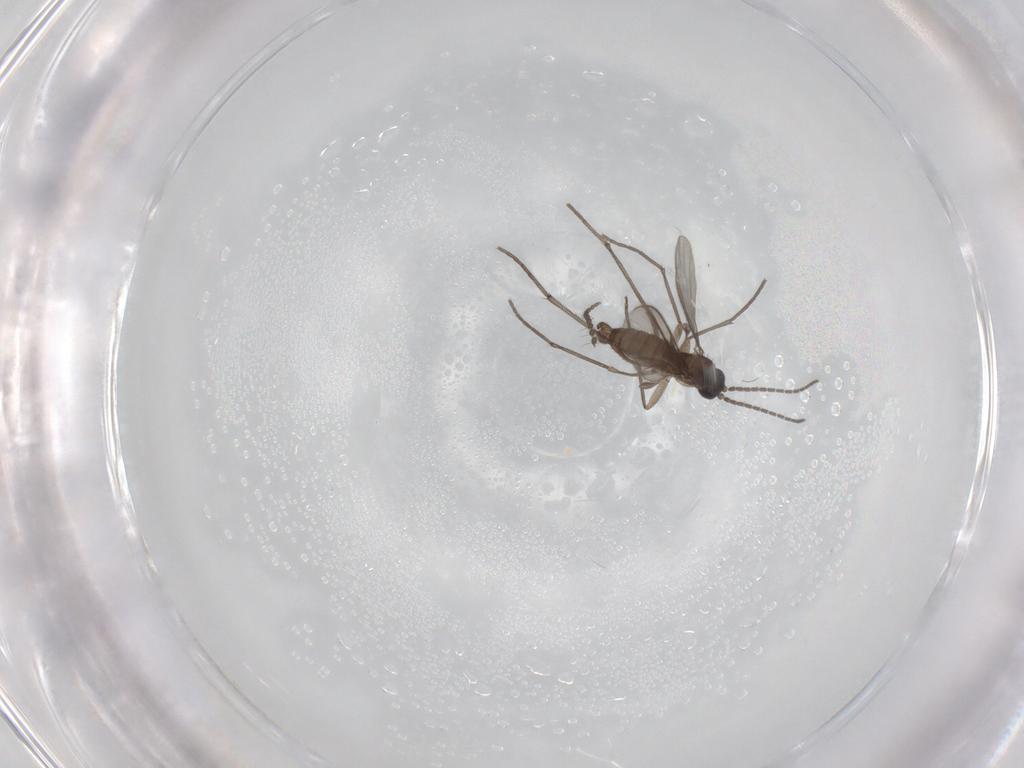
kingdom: Animalia
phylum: Arthropoda
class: Insecta
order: Diptera
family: Sciaridae
